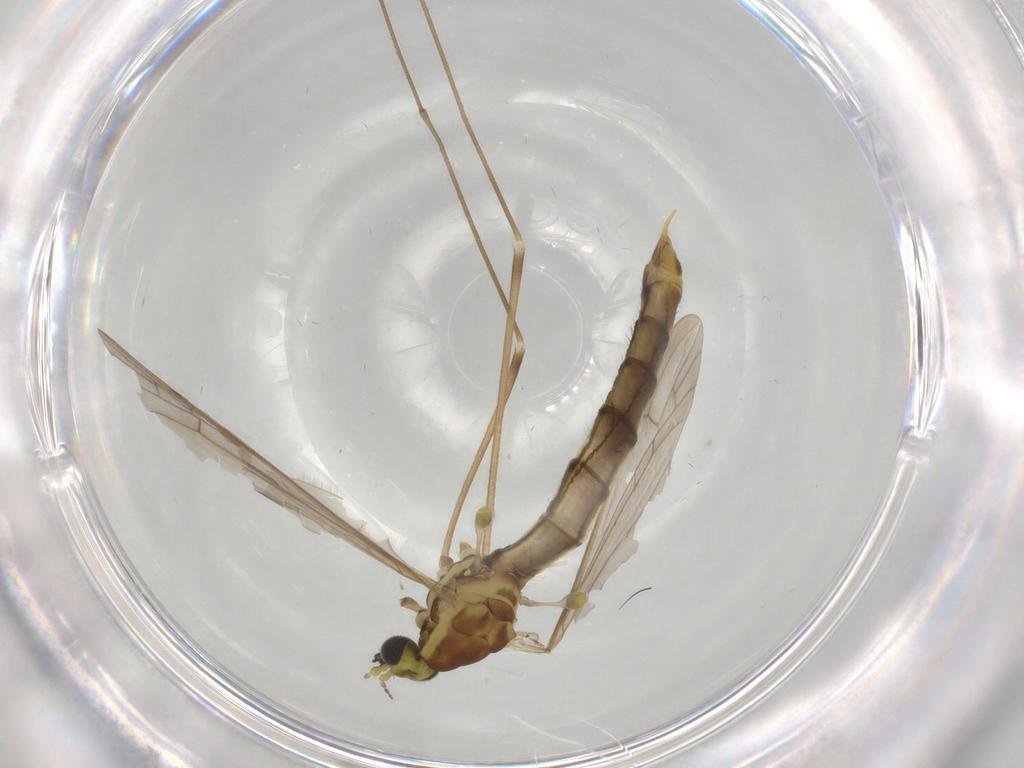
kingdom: Animalia
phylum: Arthropoda
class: Insecta
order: Diptera
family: Ceratopogonidae
